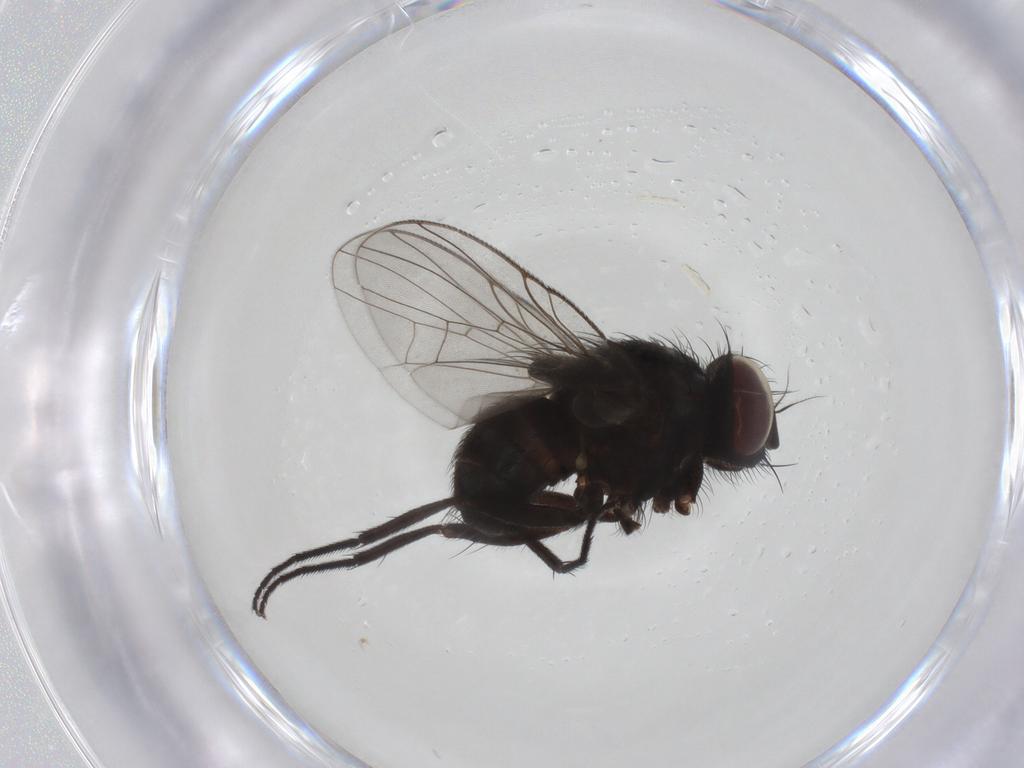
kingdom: Animalia
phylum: Arthropoda
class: Insecta
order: Diptera
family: Muscidae
